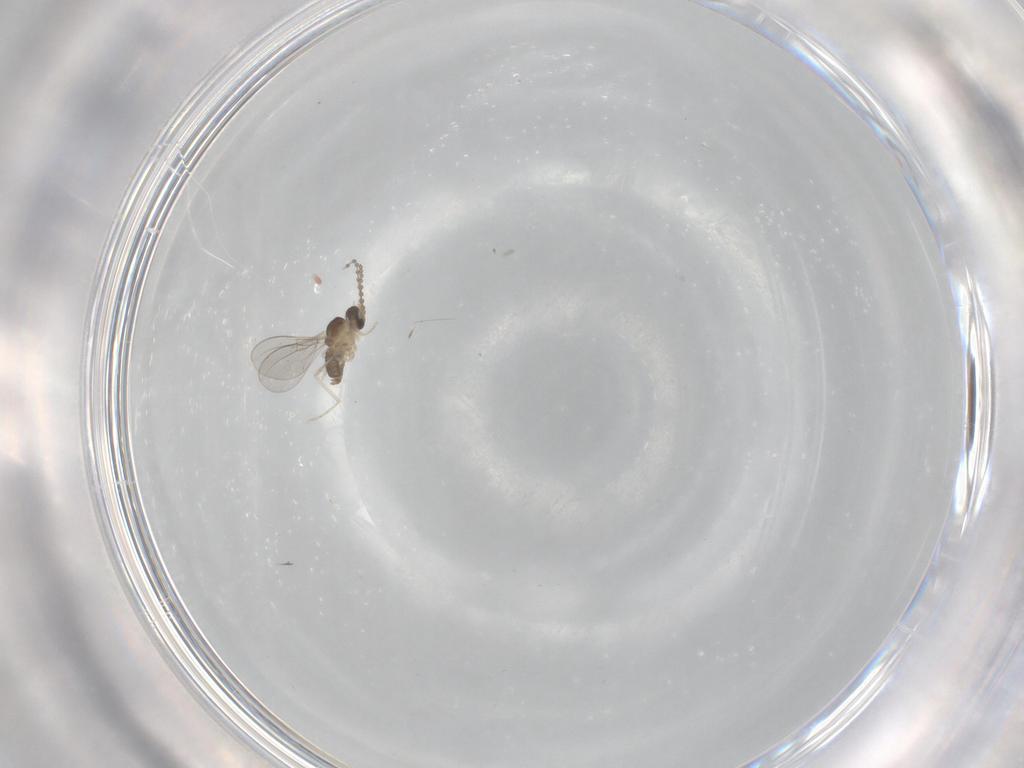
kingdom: Animalia
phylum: Arthropoda
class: Insecta
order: Diptera
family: Cecidomyiidae
